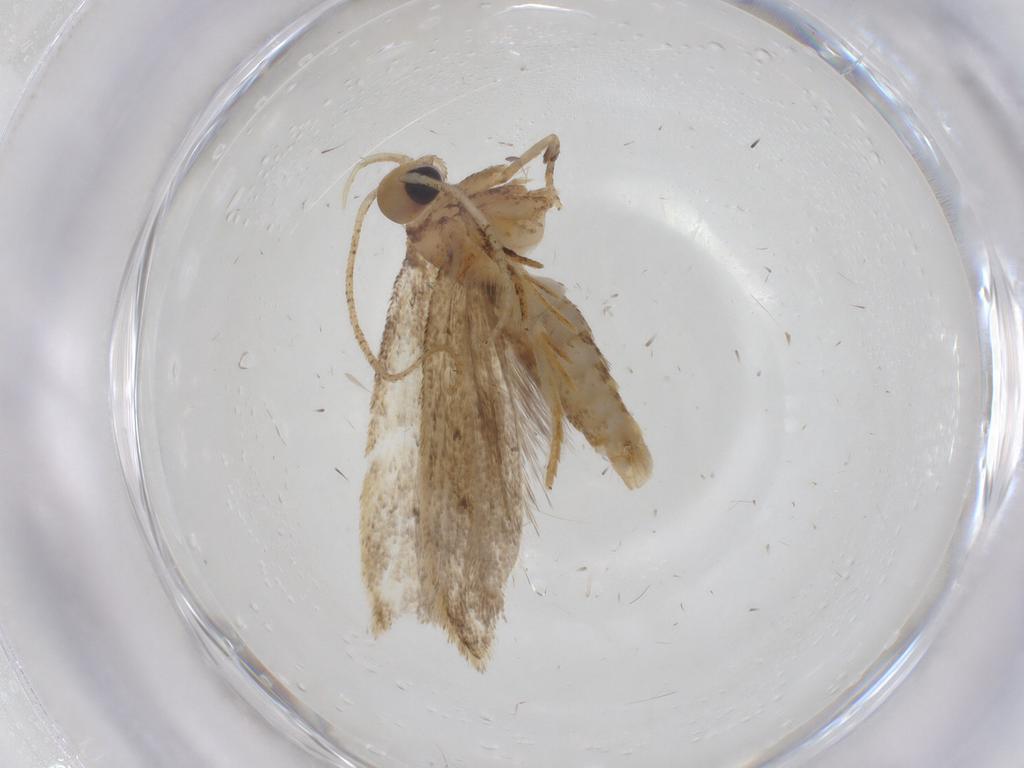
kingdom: Animalia
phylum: Arthropoda
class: Insecta
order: Lepidoptera
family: Oecophoridae
